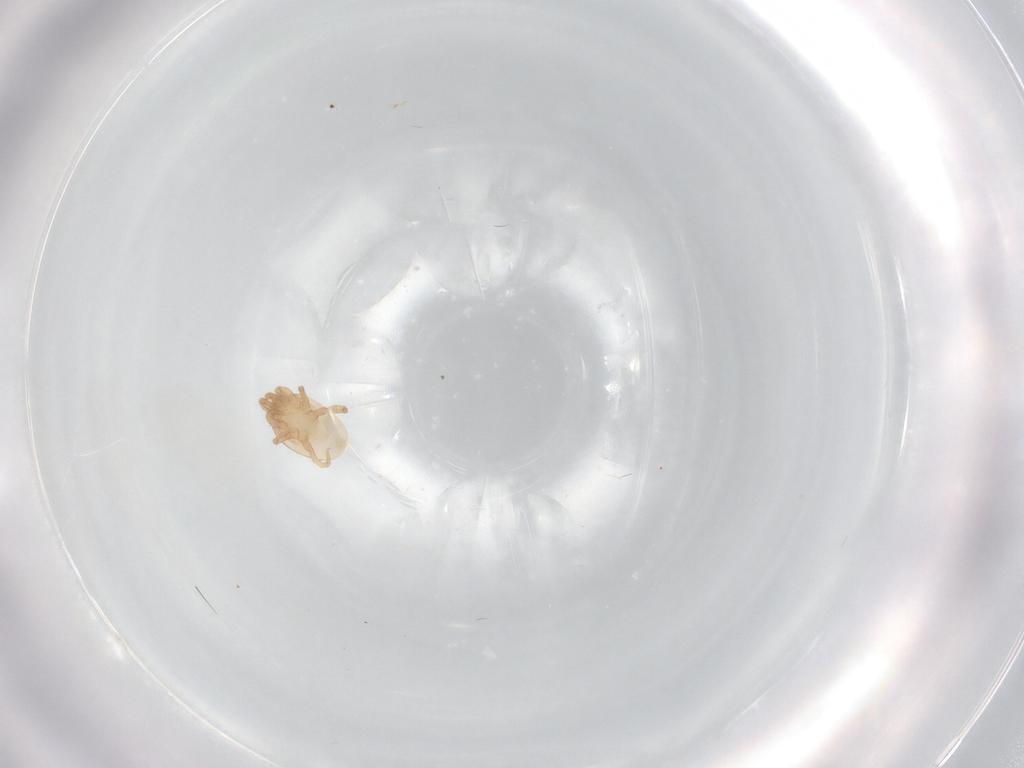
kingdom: Animalia
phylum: Arthropoda
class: Arachnida
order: Mesostigmata
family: Laelapidae
